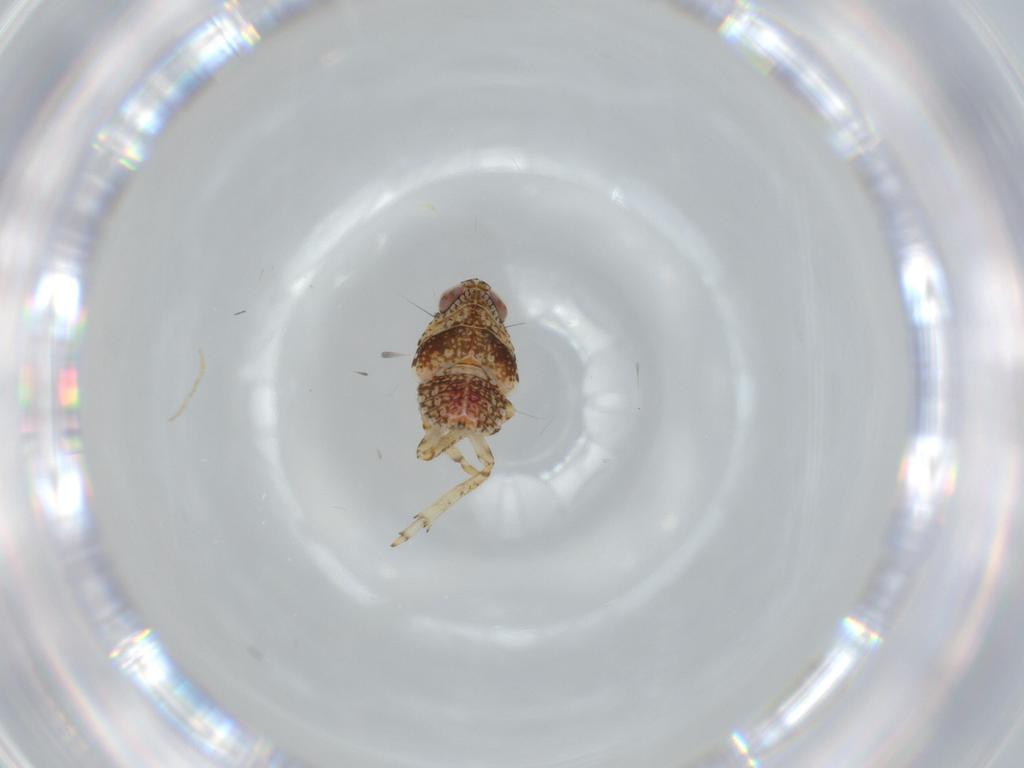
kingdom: Animalia
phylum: Arthropoda
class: Insecta
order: Hemiptera
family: Issidae
